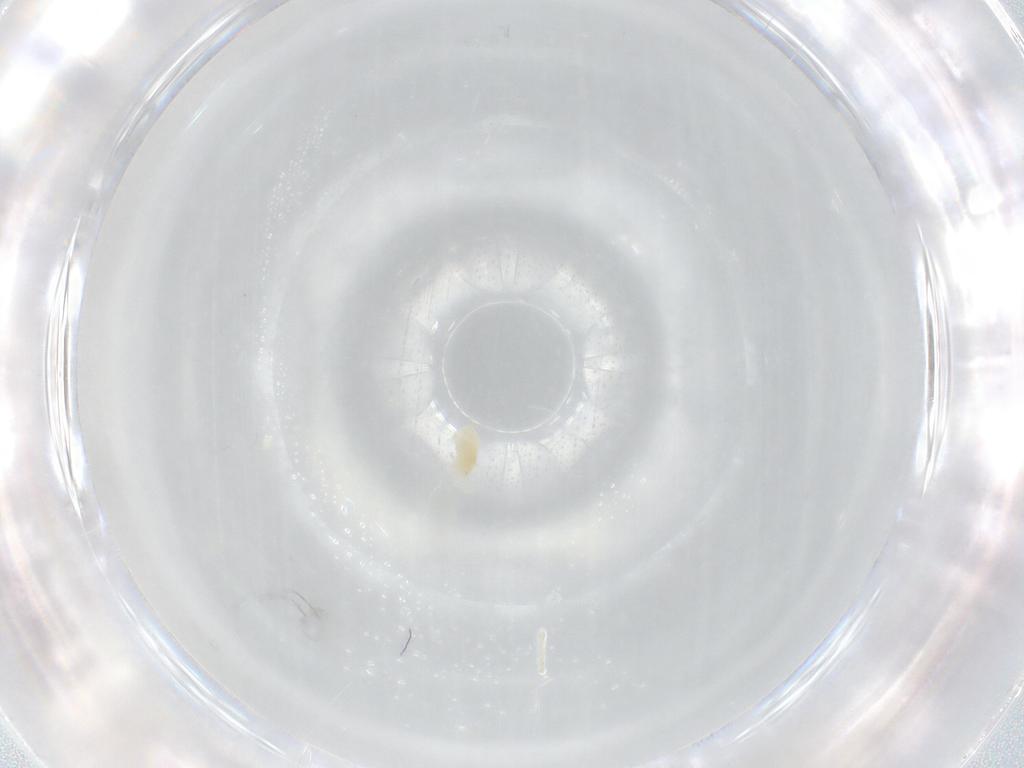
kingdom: Animalia
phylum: Arthropoda
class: Arachnida
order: Trombidiformes
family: Eupodidae
